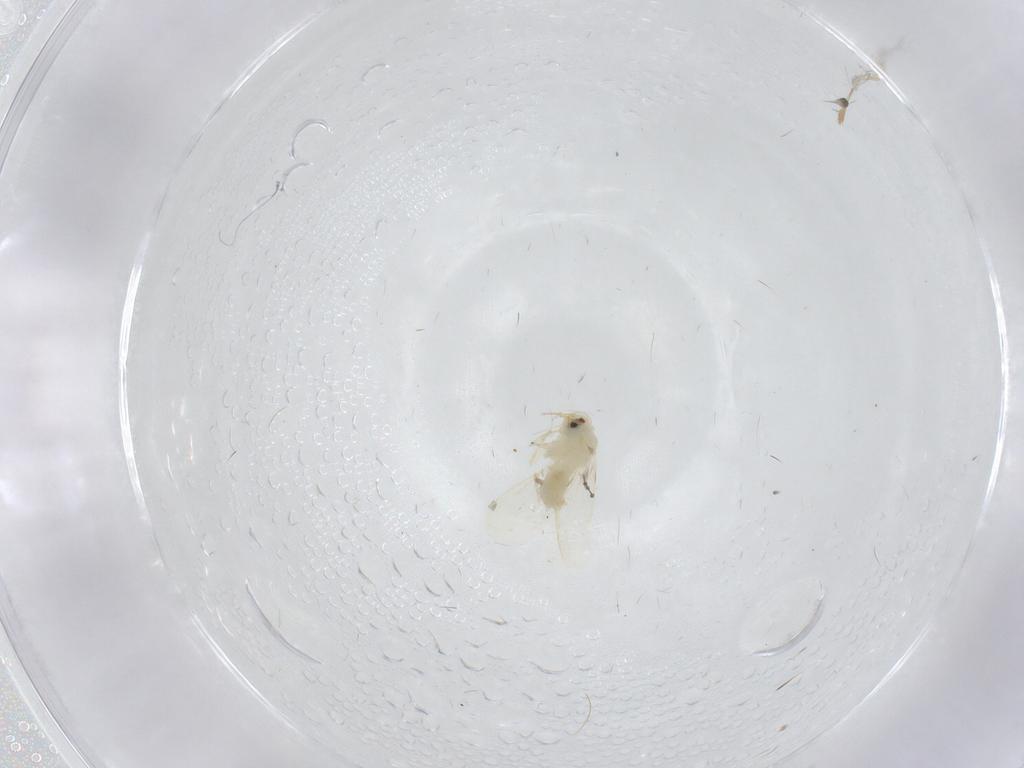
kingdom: Animalia
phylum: Arthropoda
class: Insecta
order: Hemiptera
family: Aleyrodidae
